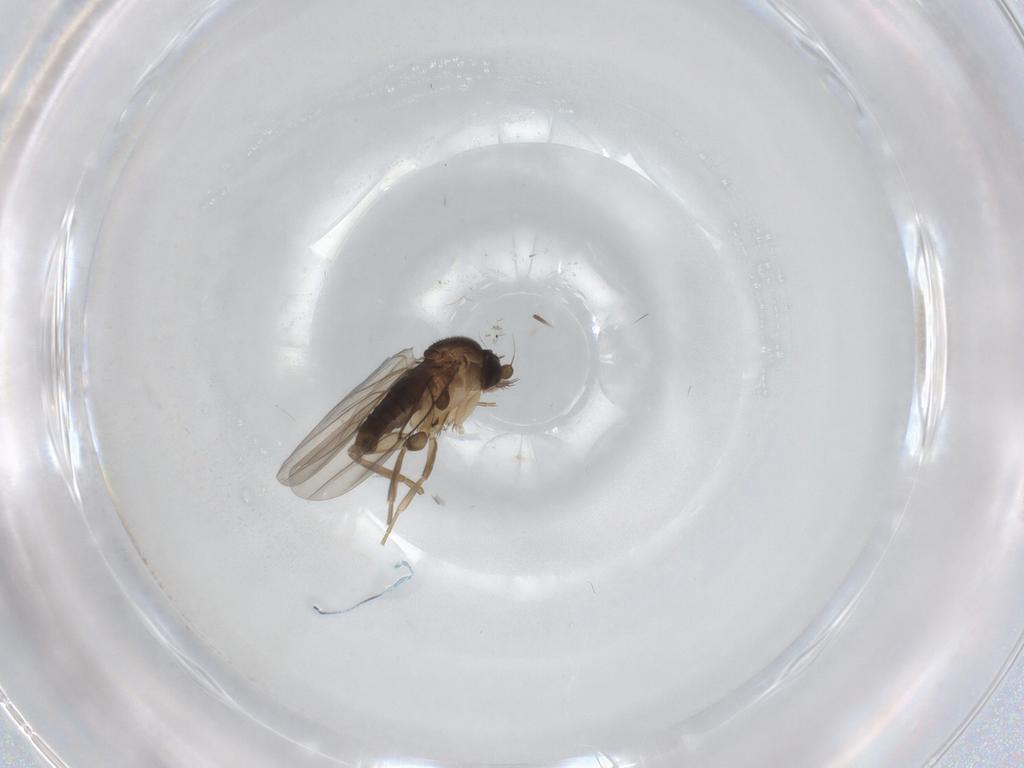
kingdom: Animalia
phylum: Arthropoda
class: Insecta
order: Diptera
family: Phoridae
